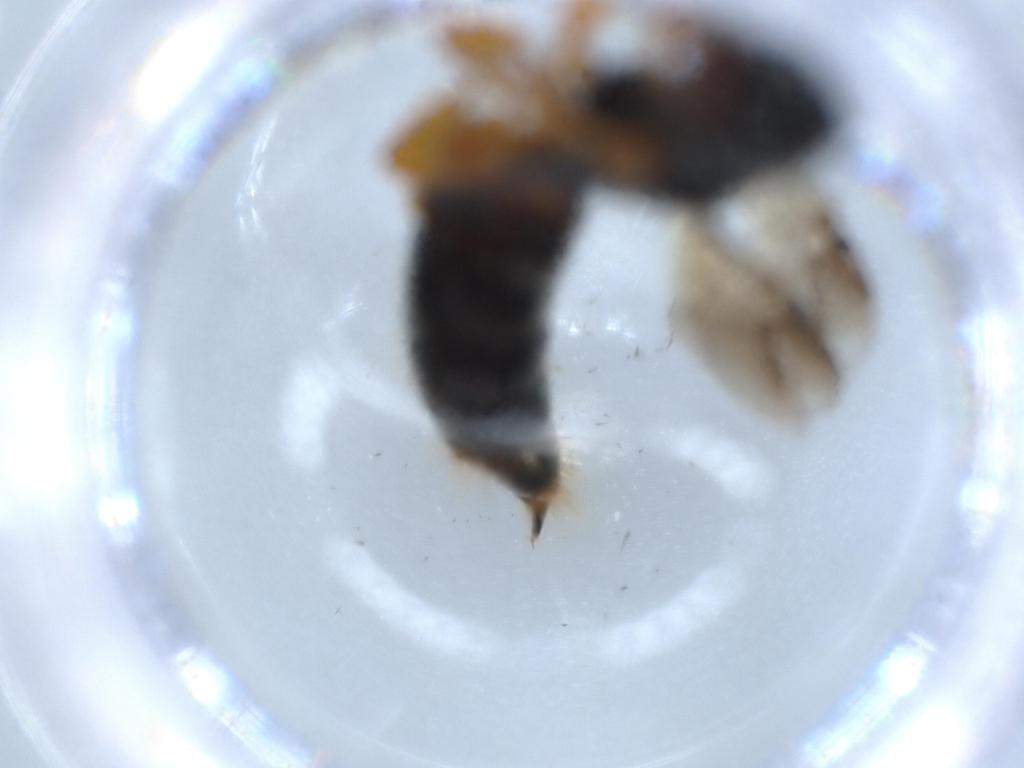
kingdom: Animalia
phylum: Arthropoda
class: Insecta
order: Hymenoptera
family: Scolebythidae
